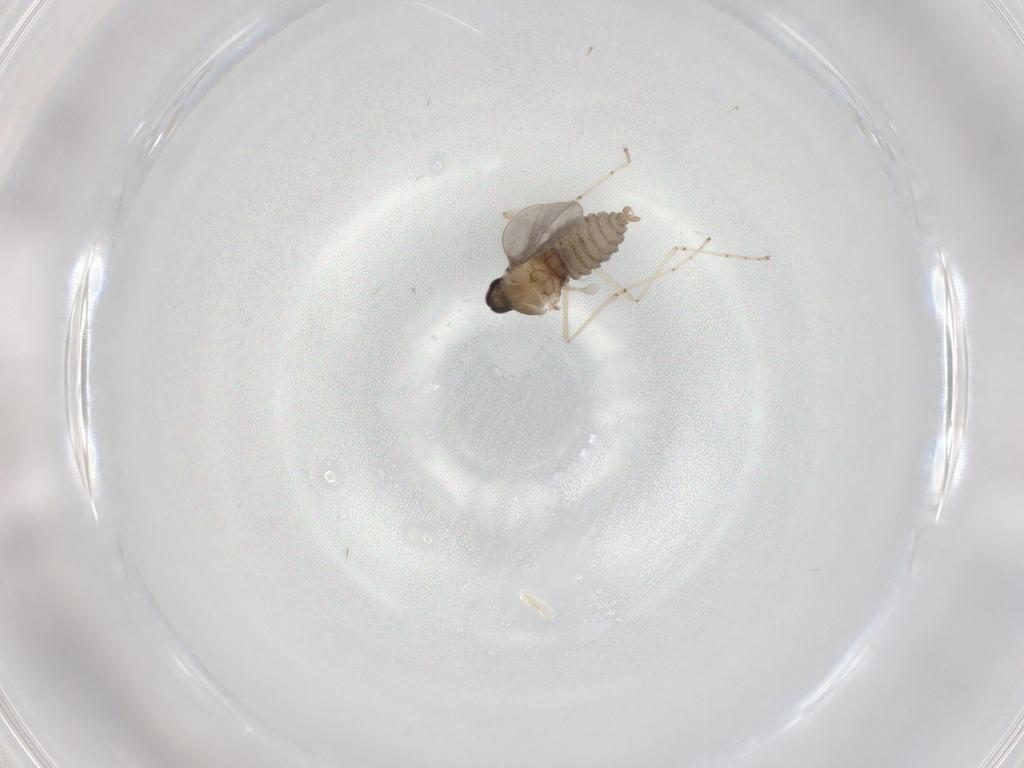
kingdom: Animalia
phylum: Arthropoda
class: Insecta
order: Diptera
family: Cecidomyiidae
